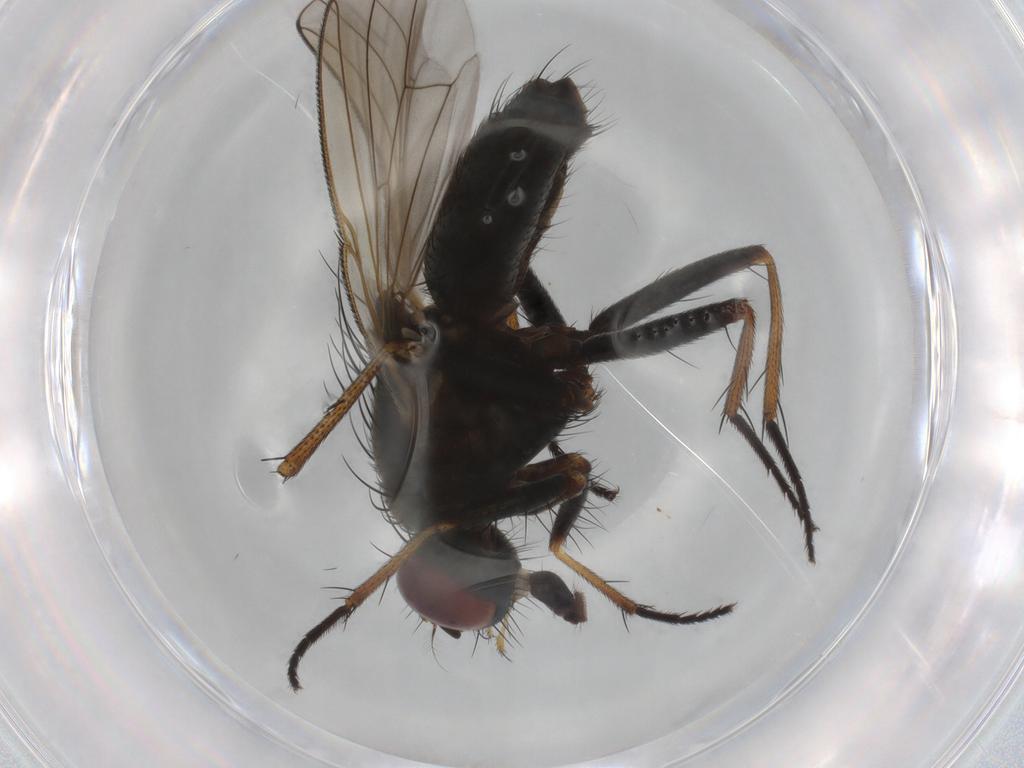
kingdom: Animalia
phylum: Arthropoda
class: Insecta
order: Diptera
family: Muscidae
